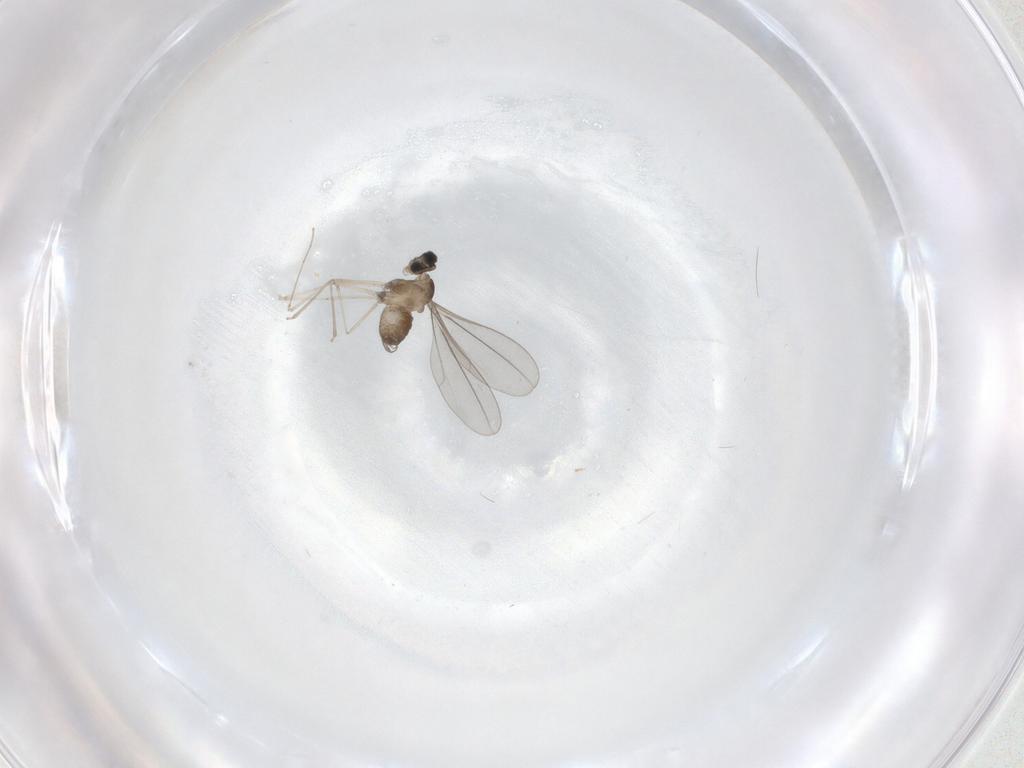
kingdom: Animalia
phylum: Arthropoda
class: Insecta
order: Diptera
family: Cecidomyiidae
